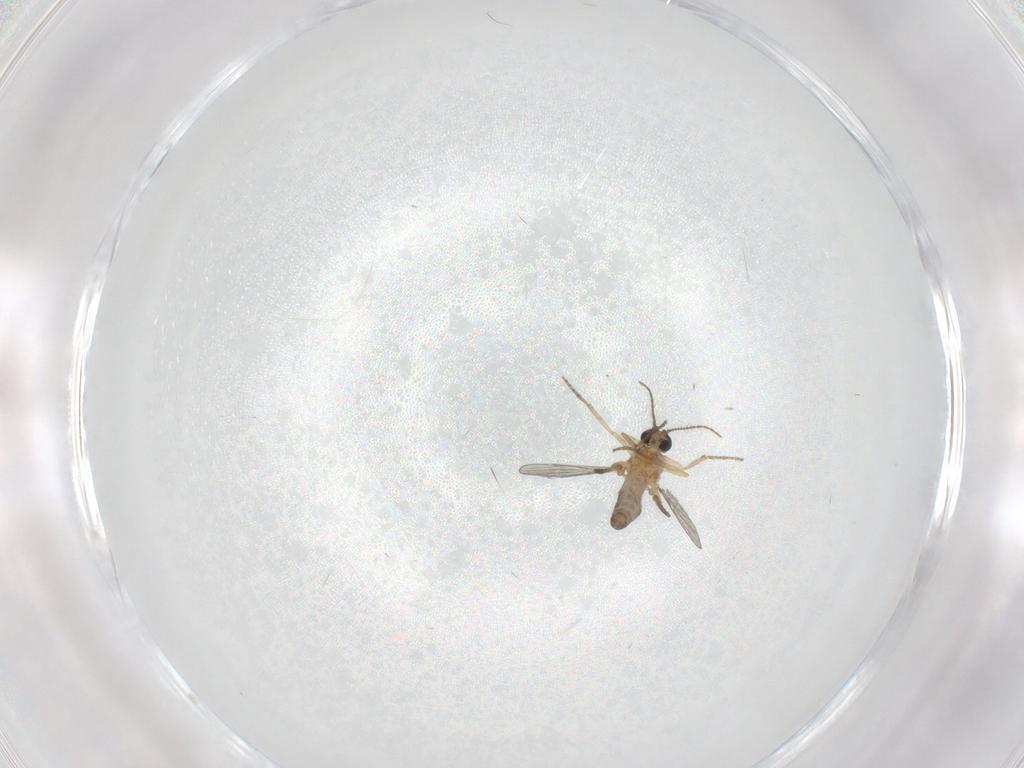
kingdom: Animalia
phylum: Arthropoda
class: Insecta
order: Diptera
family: Ceratopogonidae
